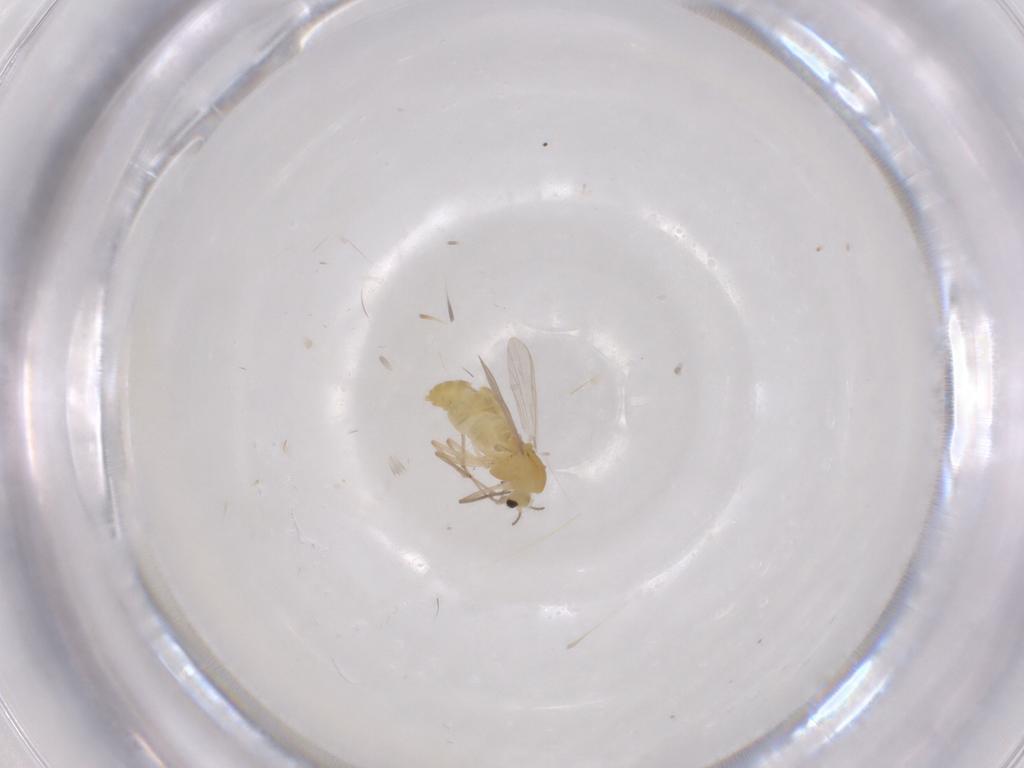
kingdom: Animalia
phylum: Arthropoda
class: Insecta
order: Diptera
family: Chironomidae
